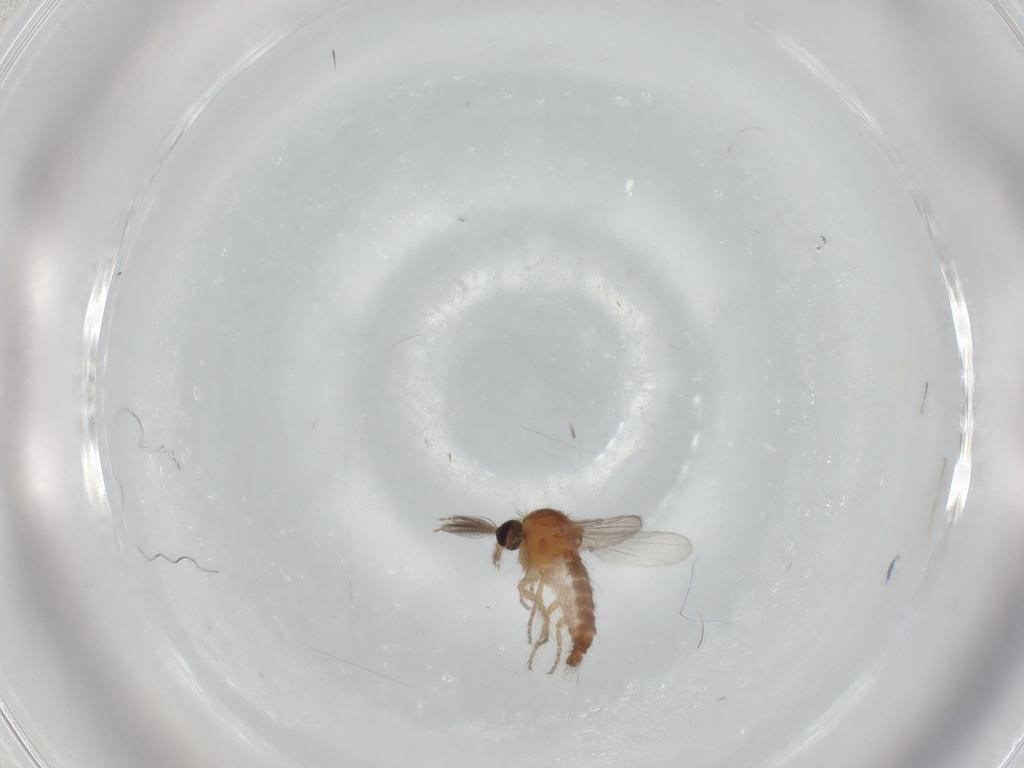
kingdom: Animalia
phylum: Arthropoda
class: Insecta
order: Diptera
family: Ceratopogonidae
